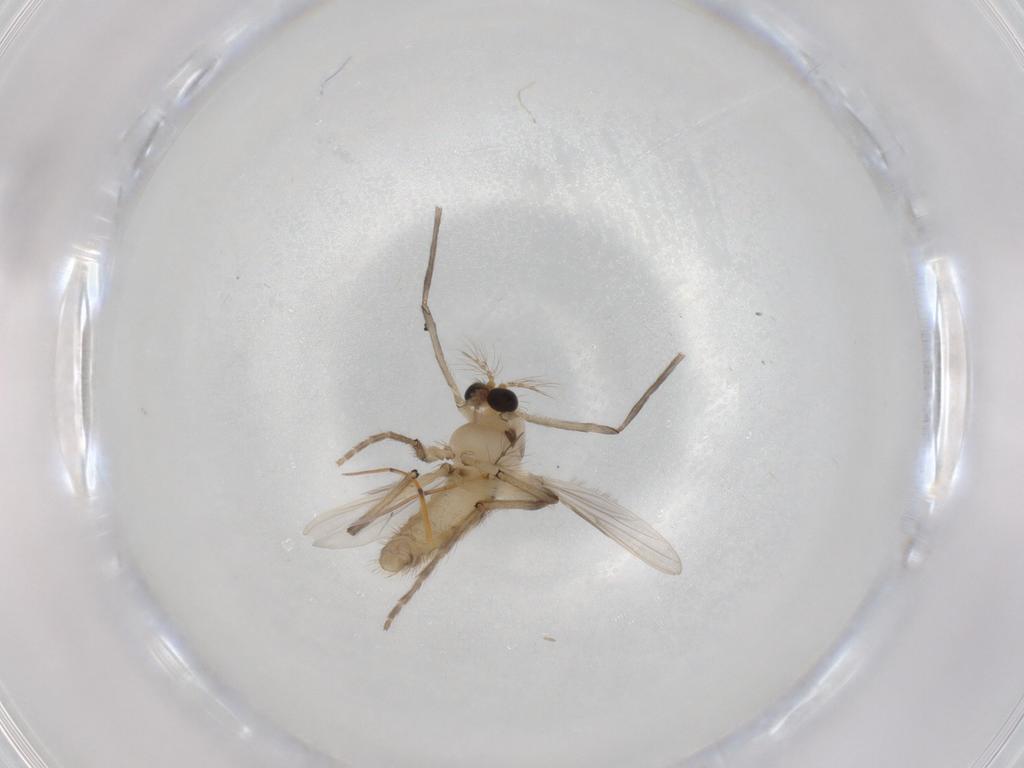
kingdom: Animalia
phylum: Arthropoda
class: Insecta
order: Diptera
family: Chironomidae
